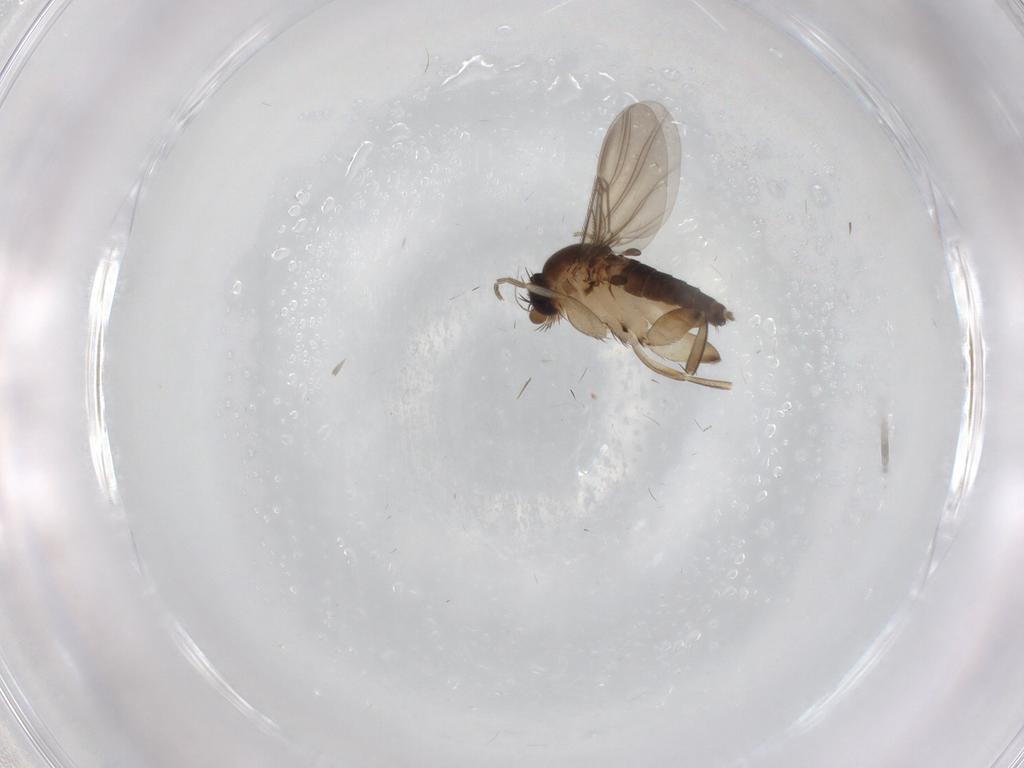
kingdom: Animalia
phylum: Arthropoda
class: Insecta
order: Diptera
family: Phoridae
